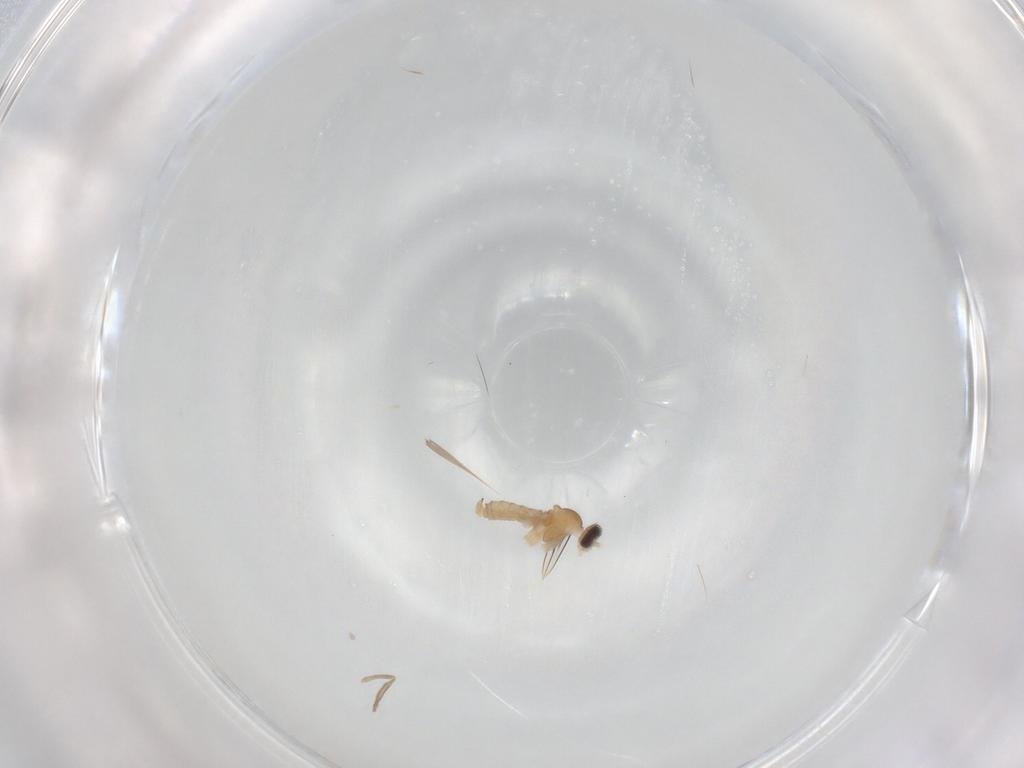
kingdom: Animalia
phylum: Arthropoda
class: Insecta
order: Diptera
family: Cecidomyiidae
